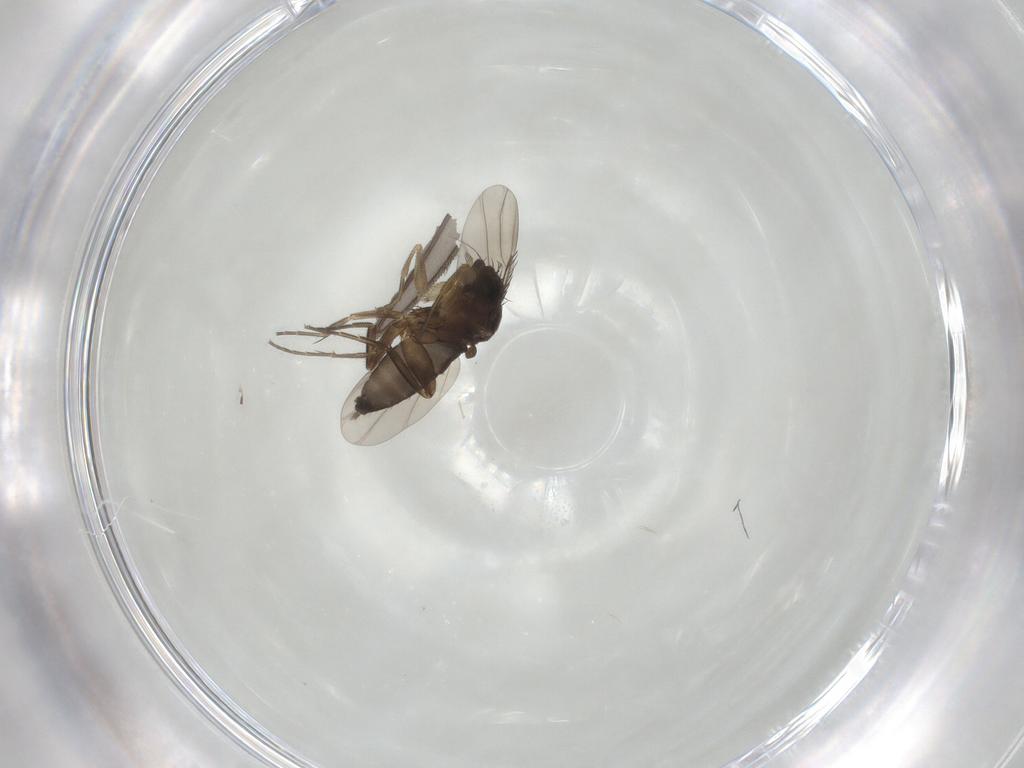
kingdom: Animalia
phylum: Arthropoda
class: Insecta
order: Diptera
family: Phoridae
